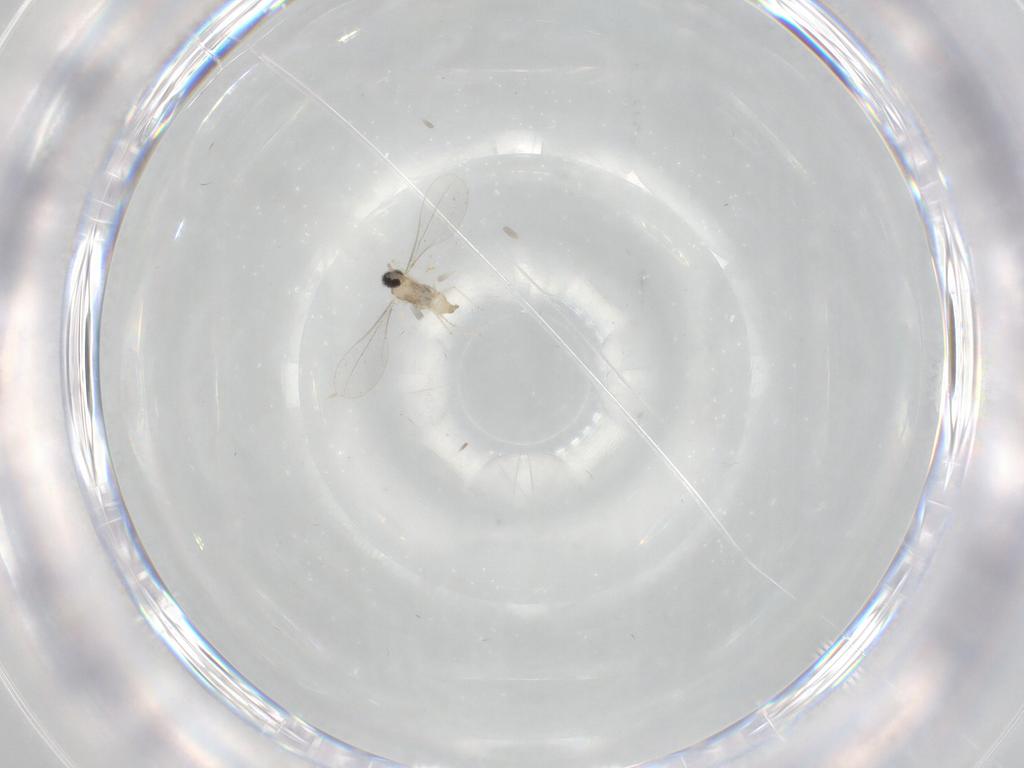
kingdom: Animalia
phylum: Arthropoda
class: Insecta
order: Diptera
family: Cecidomyiidae
